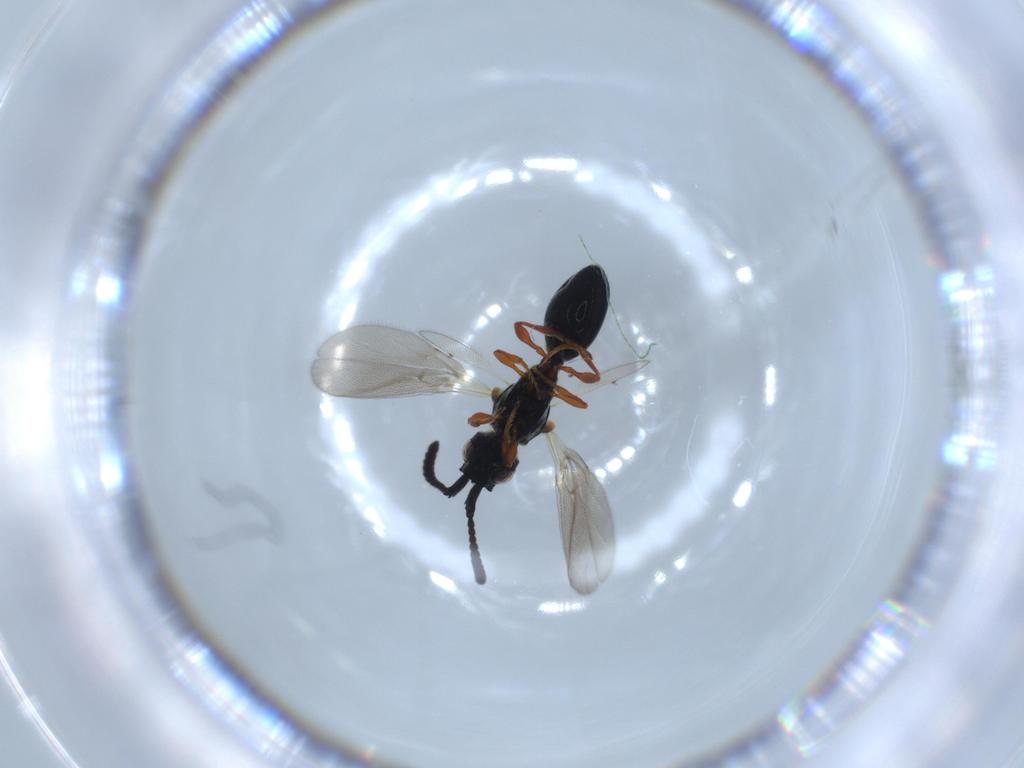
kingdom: Animalia
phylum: Arthropoda
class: Insecta
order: Hymenoptera
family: Diapriidae
